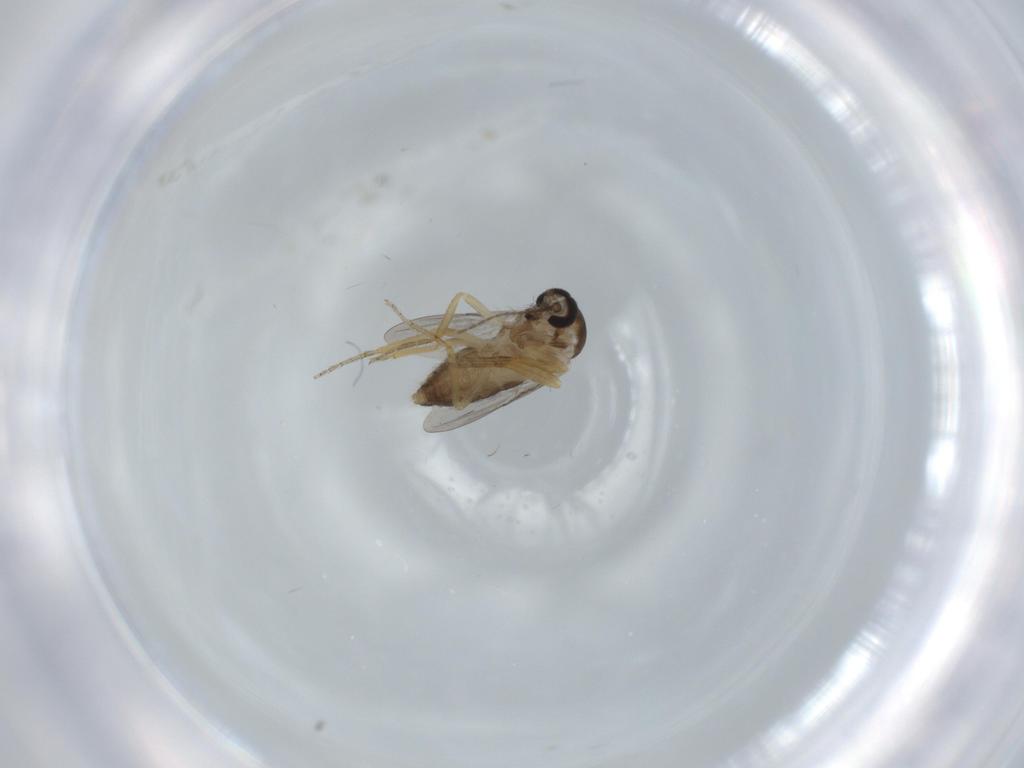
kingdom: Animalia
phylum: Arthropoda
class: Insecta
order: Diptera
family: Ceratopogonidae
